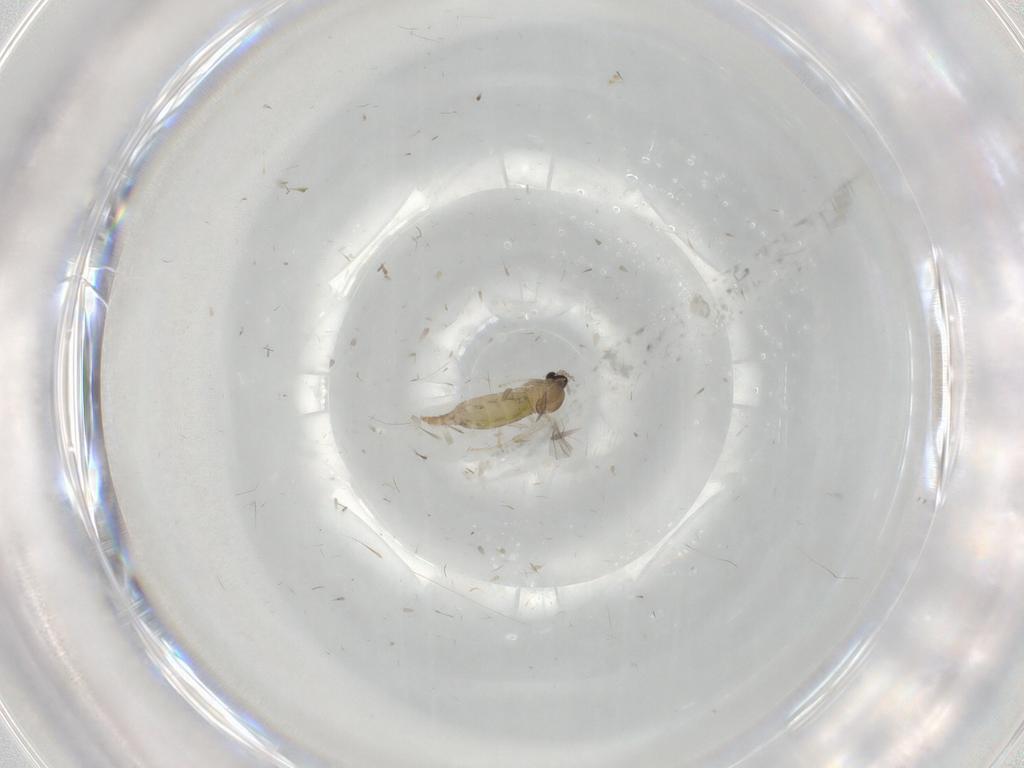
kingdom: Animalia
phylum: Arthropoda
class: Insecta
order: Diptera
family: Cecidomyiidae
